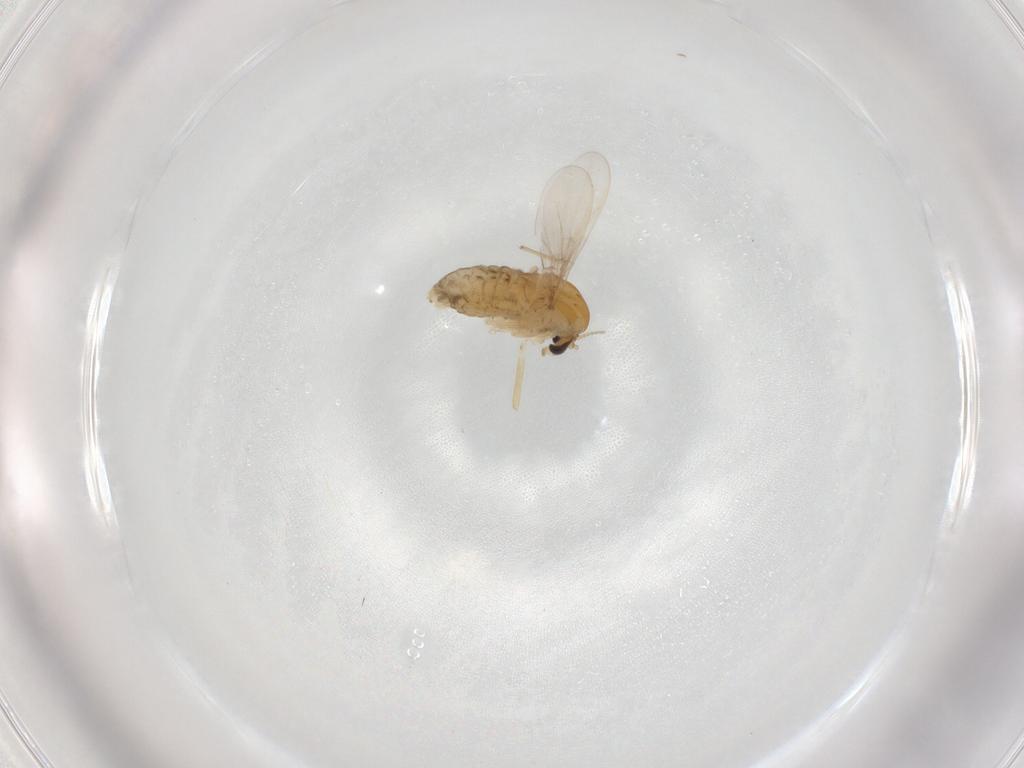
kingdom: Animalia
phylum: Arthropoda
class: Insecta
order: Diptera
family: Chironomidae
